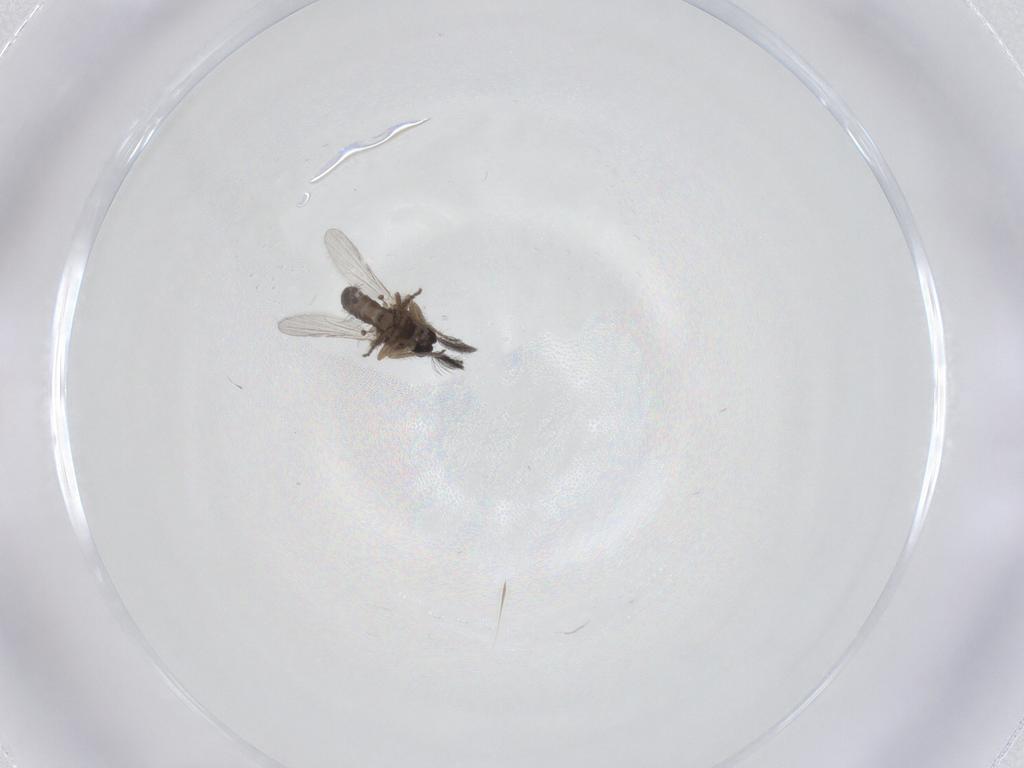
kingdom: Animalia
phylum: Arthropoda
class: Insecta
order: Diptera
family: Ceratopogonidae
